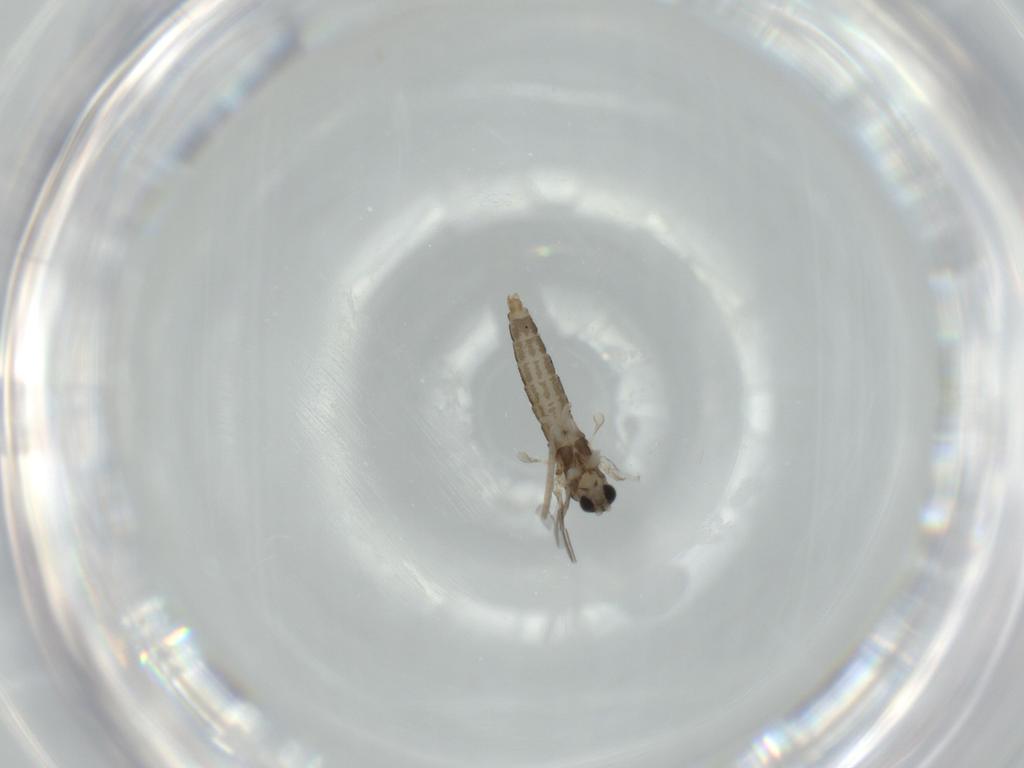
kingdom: Animalia
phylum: Arthropoda
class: Insecta
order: Diptera
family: Cecidomyiidae
